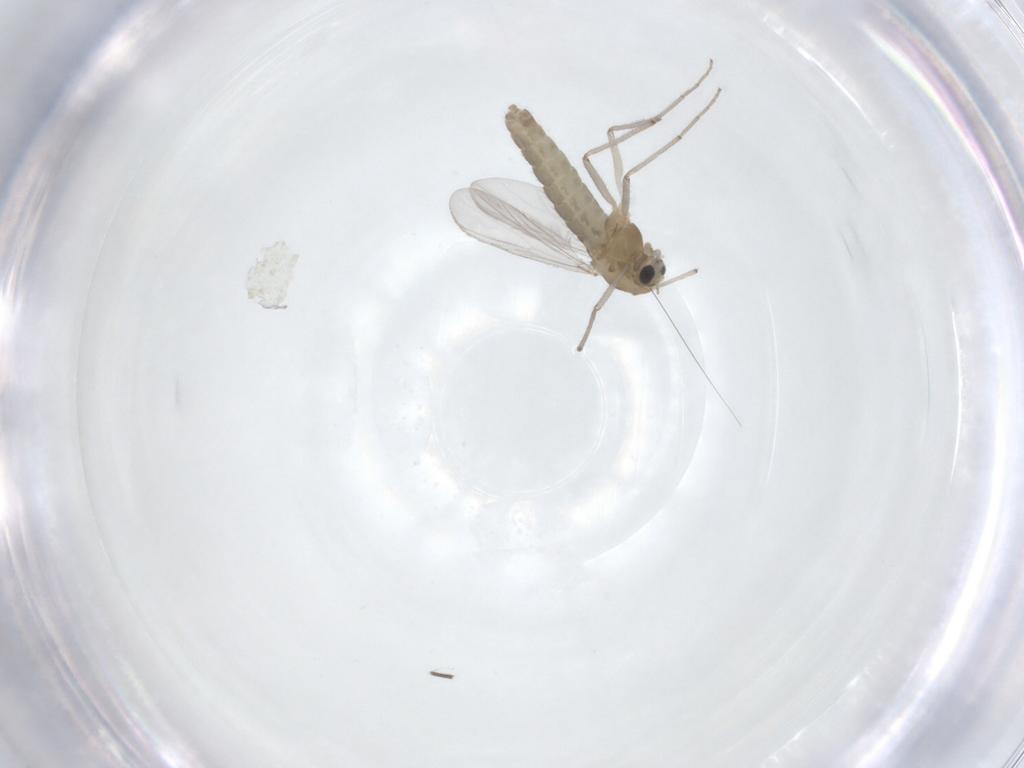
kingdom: Animalia
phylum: Arthropoda
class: Insecta
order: Diptera
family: Chironomidae
